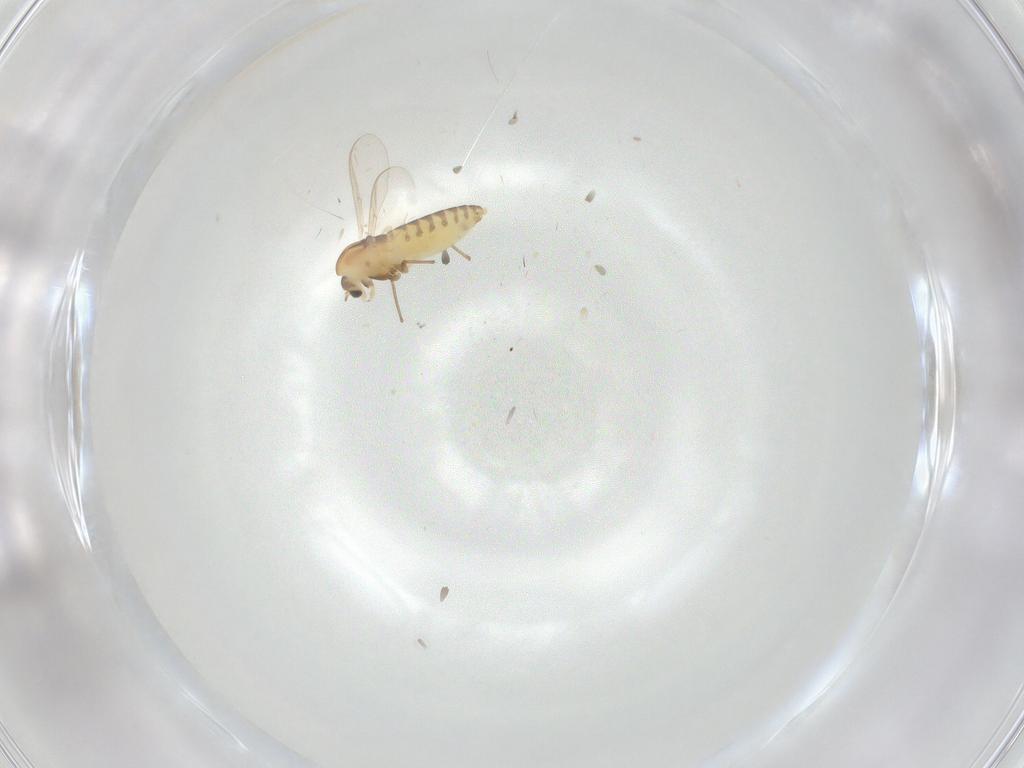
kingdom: Animalia
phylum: Arthropoda
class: Insecta
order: Diptera
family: Chironomidae
